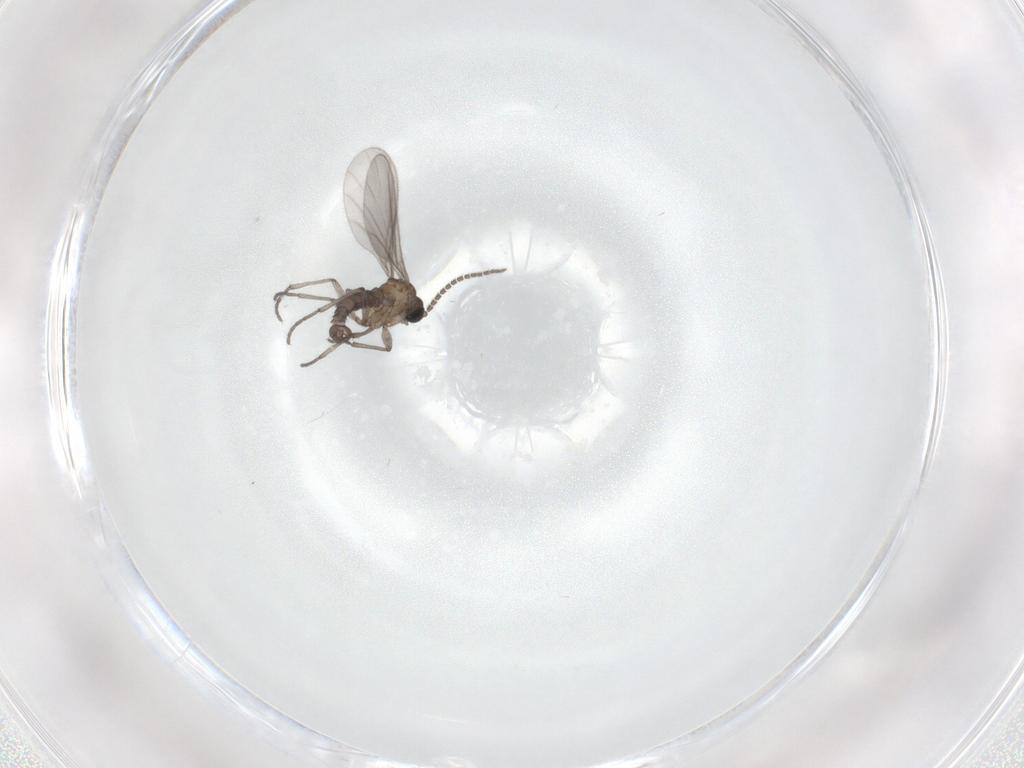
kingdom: Animalia
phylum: Arthropoda
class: Insecta
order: Diptera
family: Sciaridae
